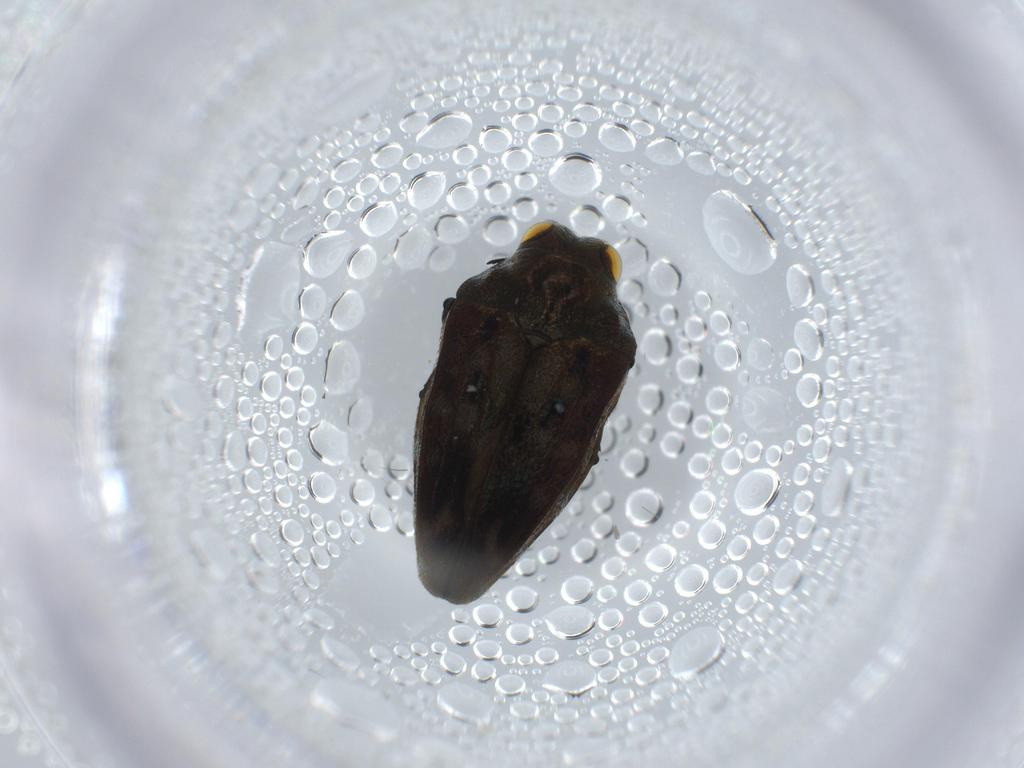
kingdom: Animalia
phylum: Arthropoda
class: Insecta
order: Coleoptera
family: Buprestidae
